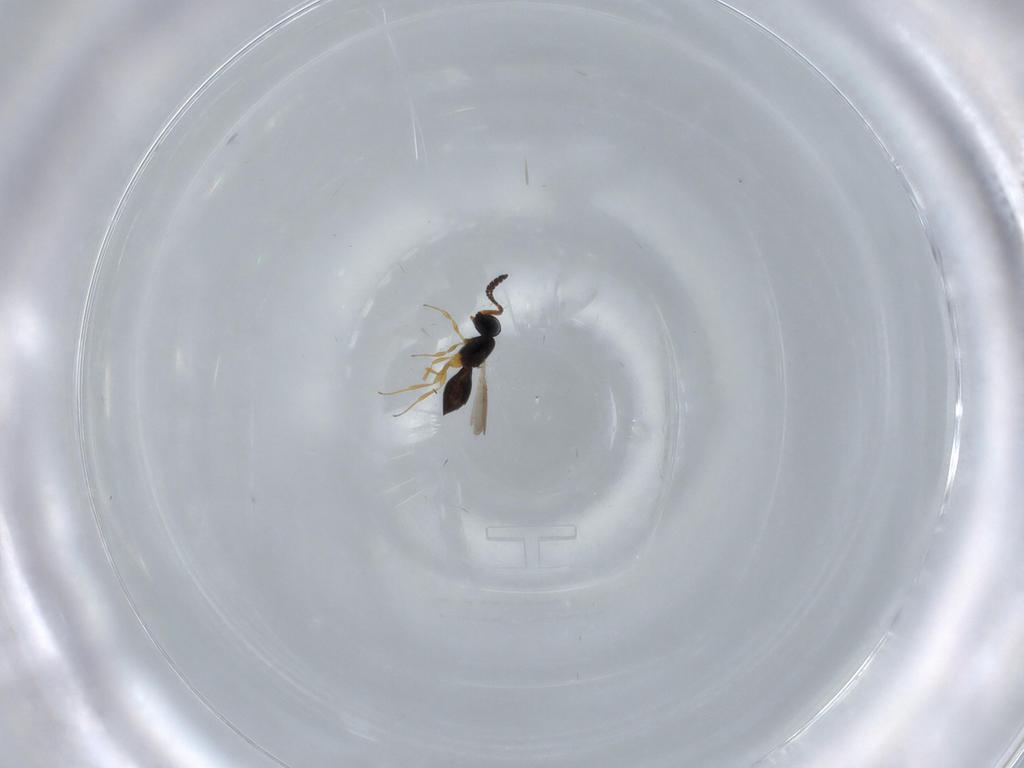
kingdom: Animalia
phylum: Arthropoda
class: Insecta
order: Hymenoptera
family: Scelionidae
